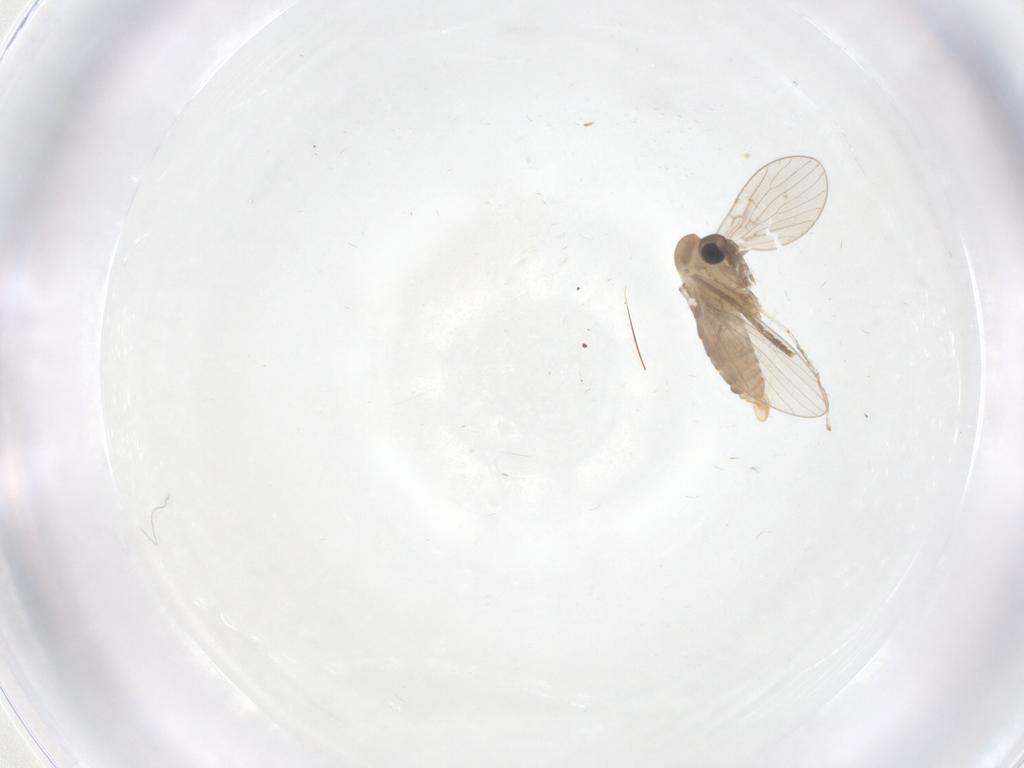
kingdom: Animalia
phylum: Arthropoda
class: Insecta
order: Diptera
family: Psychodidae
